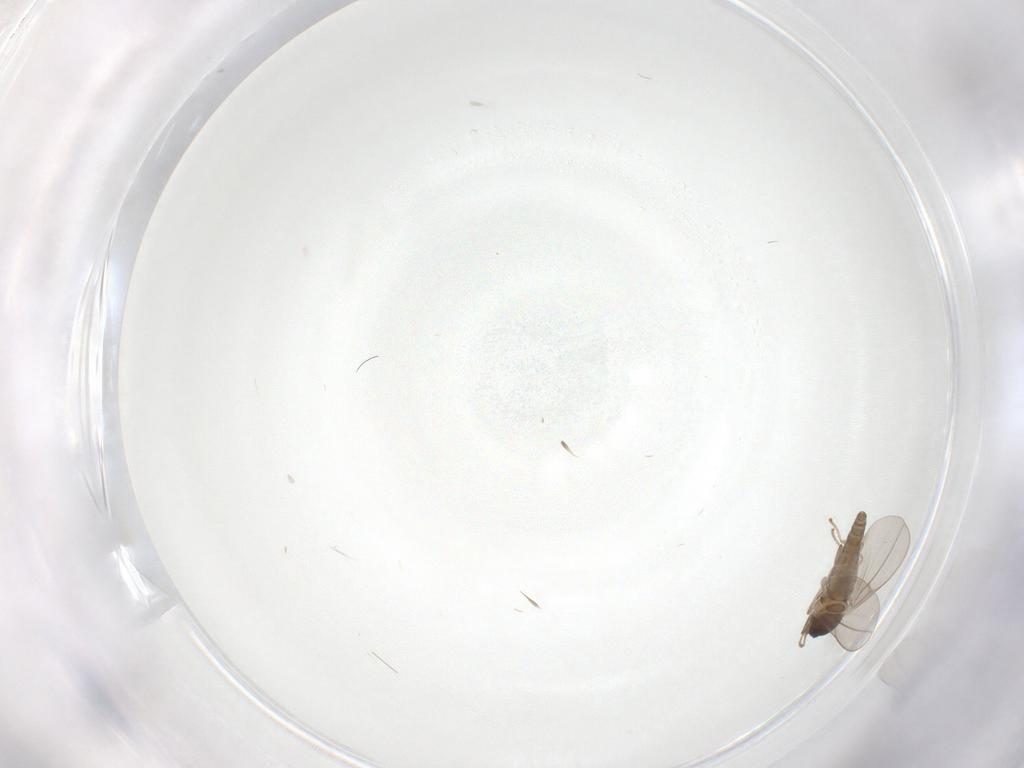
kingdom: Animalia
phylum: Arthropoda
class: Insecta
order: Diptera
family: Cecidomyiidae
